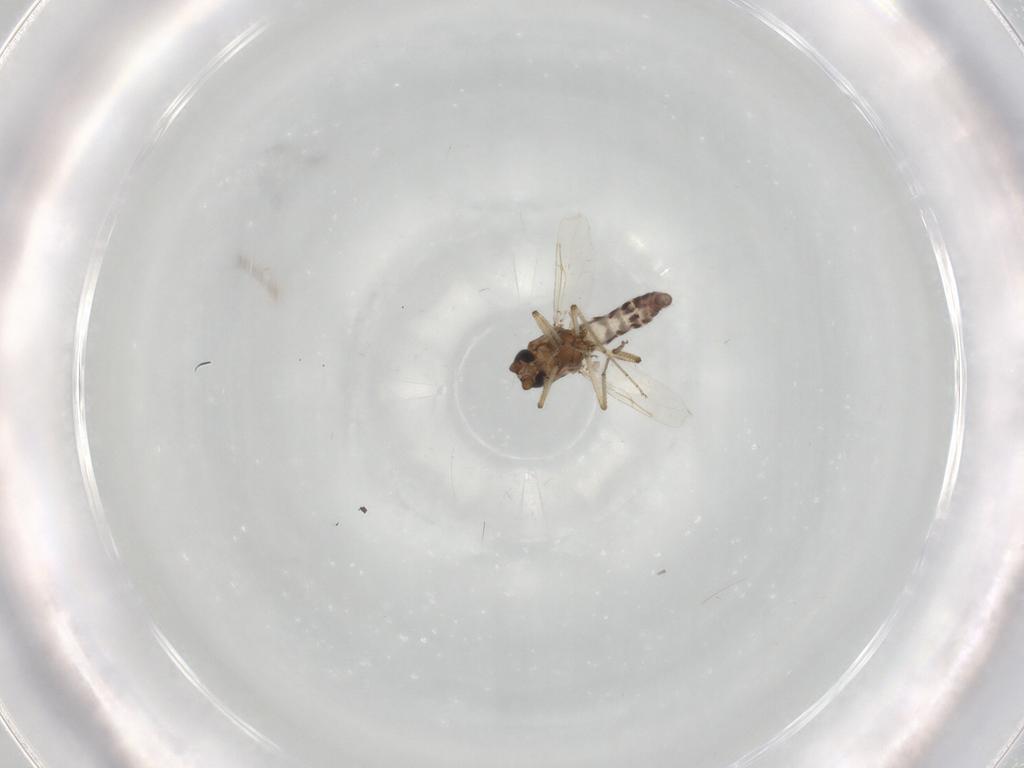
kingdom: Animalia
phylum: Arthropoda
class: Insecta
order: Diptera
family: Ceratopogonidae
